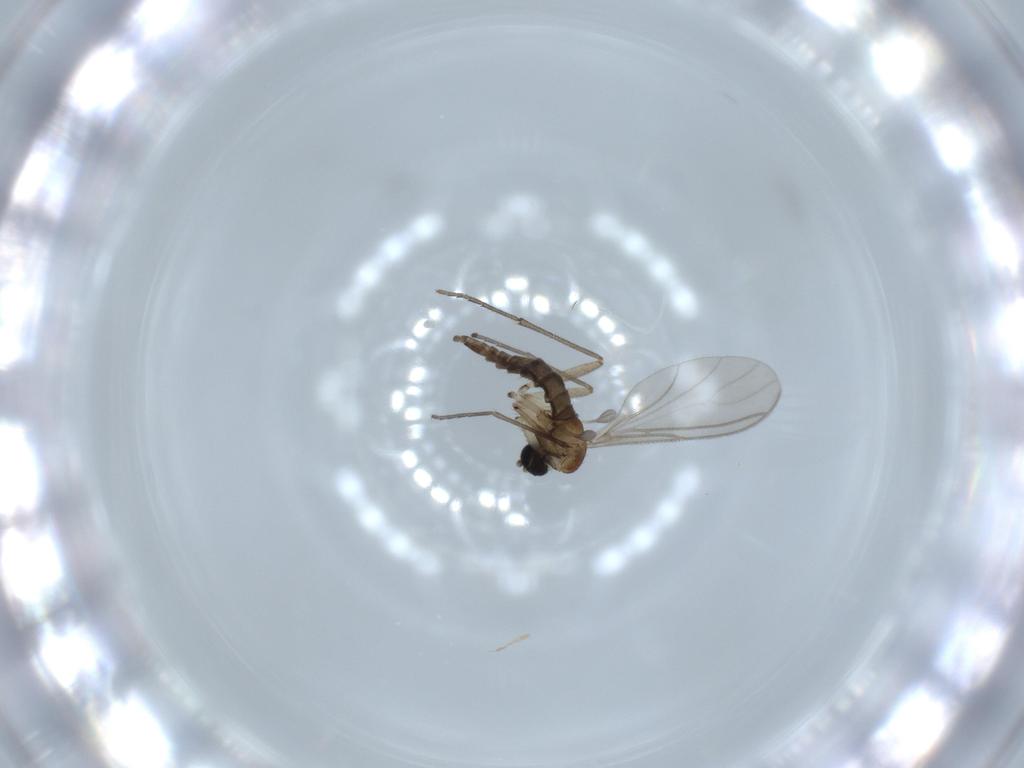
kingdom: Animalia
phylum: Arthropoda
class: Insecta
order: Diptera
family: Sciaridae
